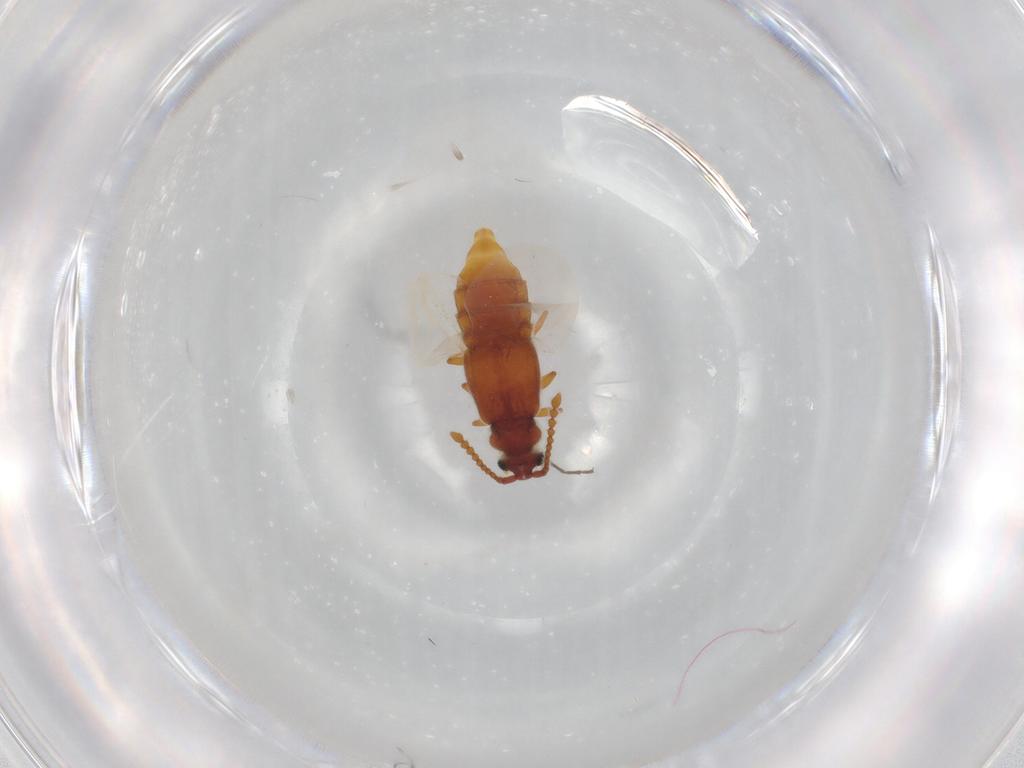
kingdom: Animalia
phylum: Arthropoda
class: Insecta
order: Coleoptera
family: Staphylinidae
